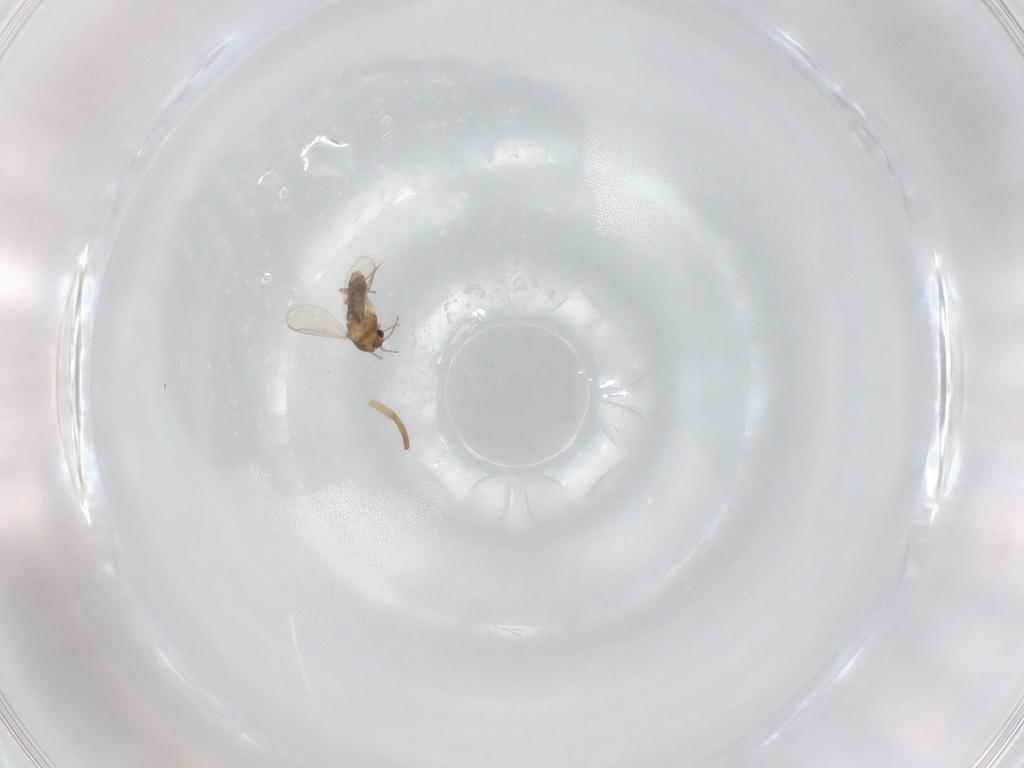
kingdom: Animalia
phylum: Arthropoda
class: Insecta
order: Diptera
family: Chironomidae
